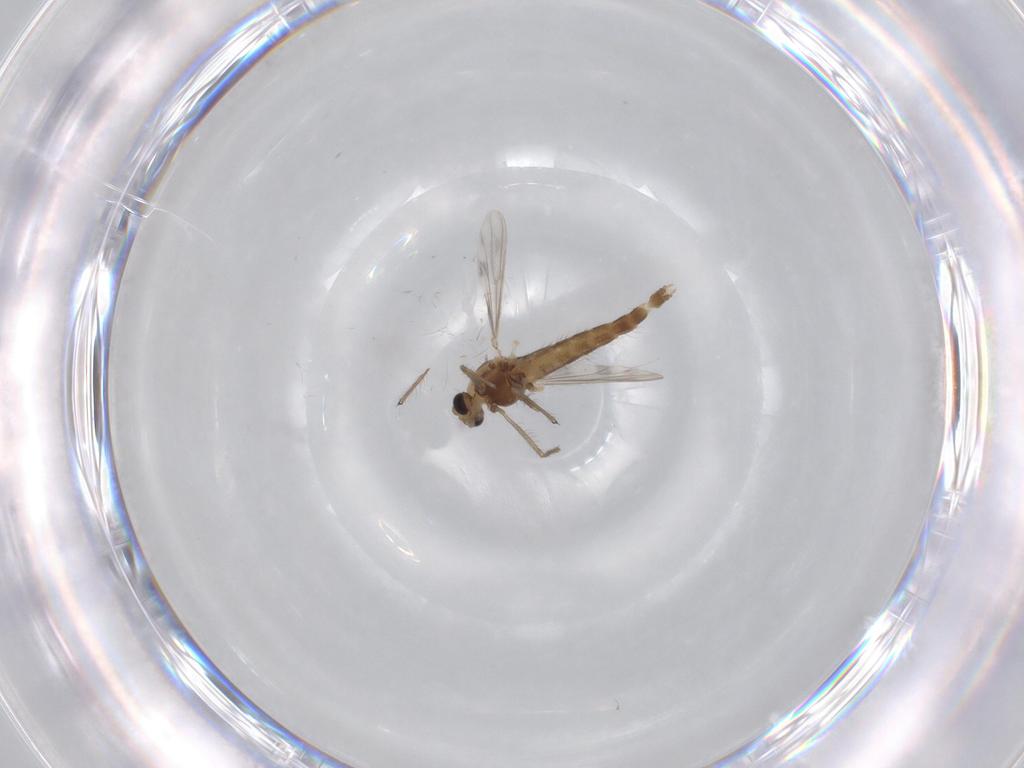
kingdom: Animalia
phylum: Arthropoda
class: Insecta
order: Diptera
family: Chironomidae
